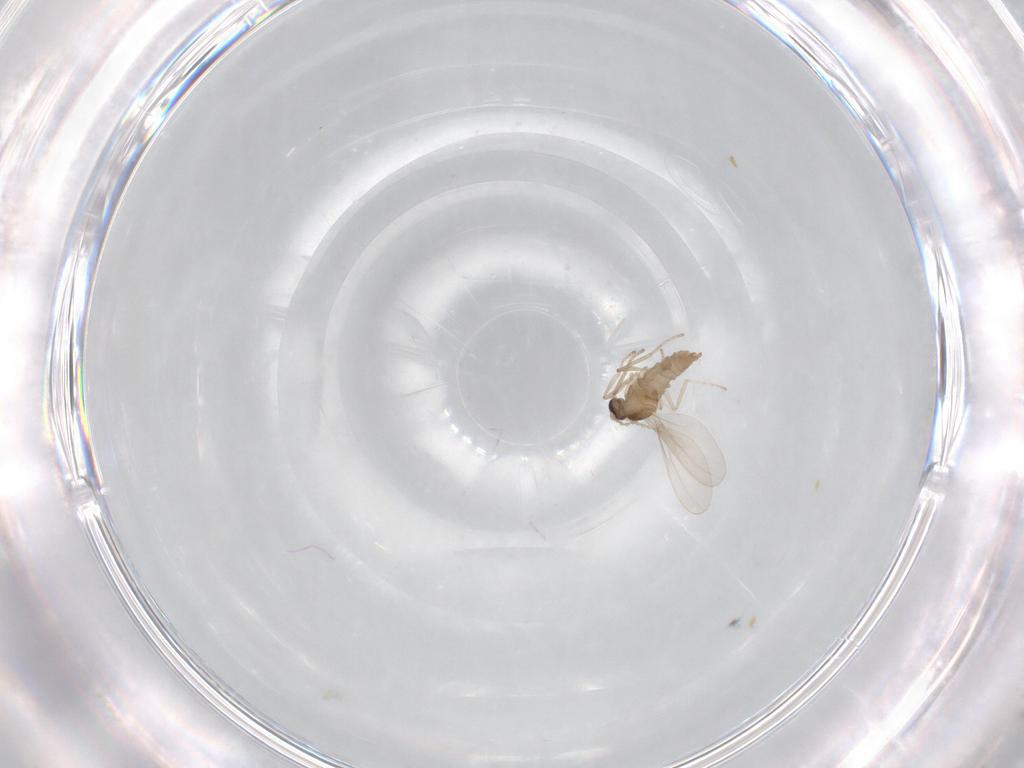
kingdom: Animalia
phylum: Arthropoda
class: Insecta
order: Diptera
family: Cecidomyiidae
